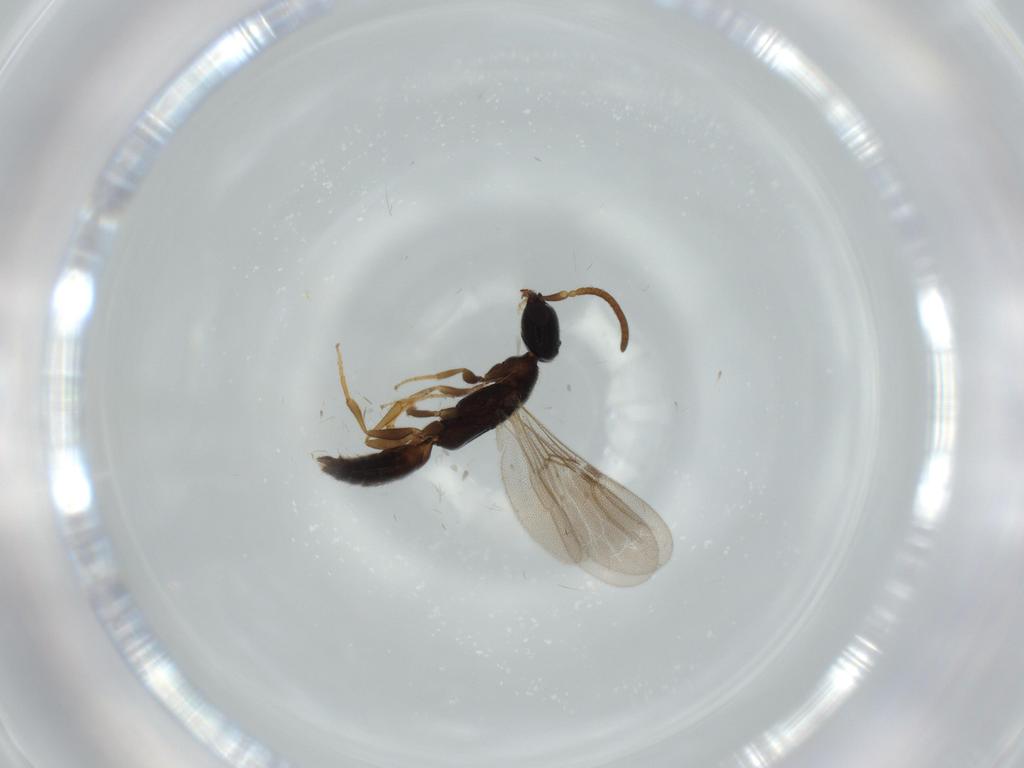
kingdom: Animalia
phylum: Arthropoda
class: Insecta
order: Hymenoptera
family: Bethylidae
